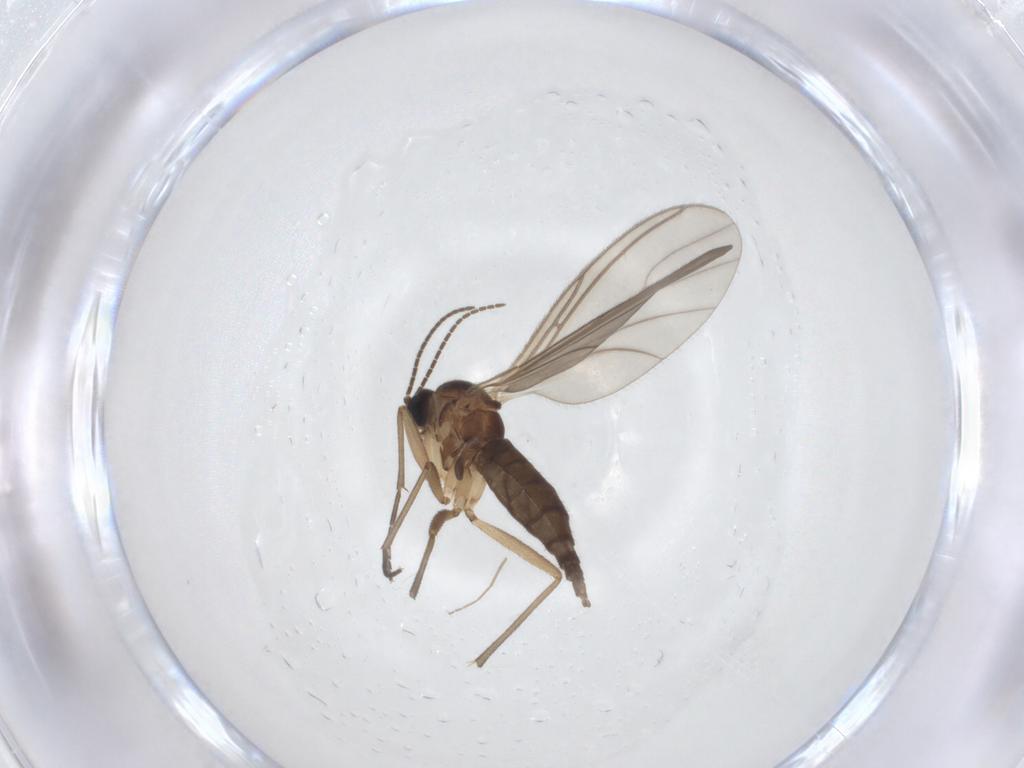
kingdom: Animalia
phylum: Arthropoda
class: Insecta
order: Diptera
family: Sciaridae
